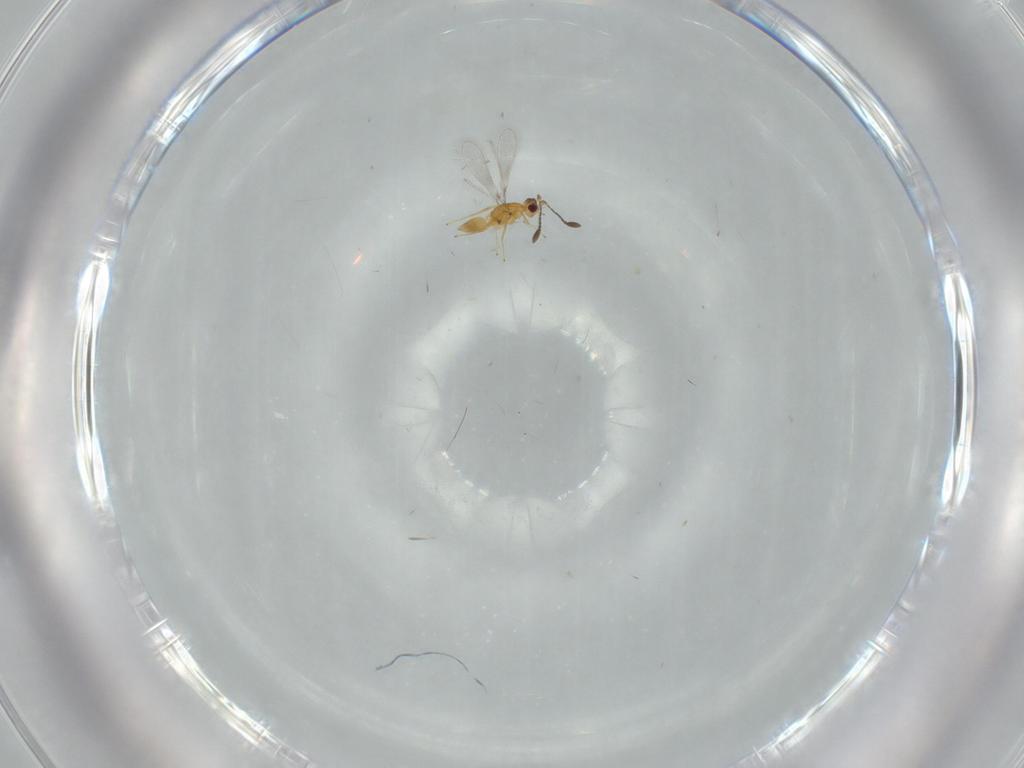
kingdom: Animalia
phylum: Arthropoda
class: Insecta
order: Hymenoptera
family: Mymaridae
